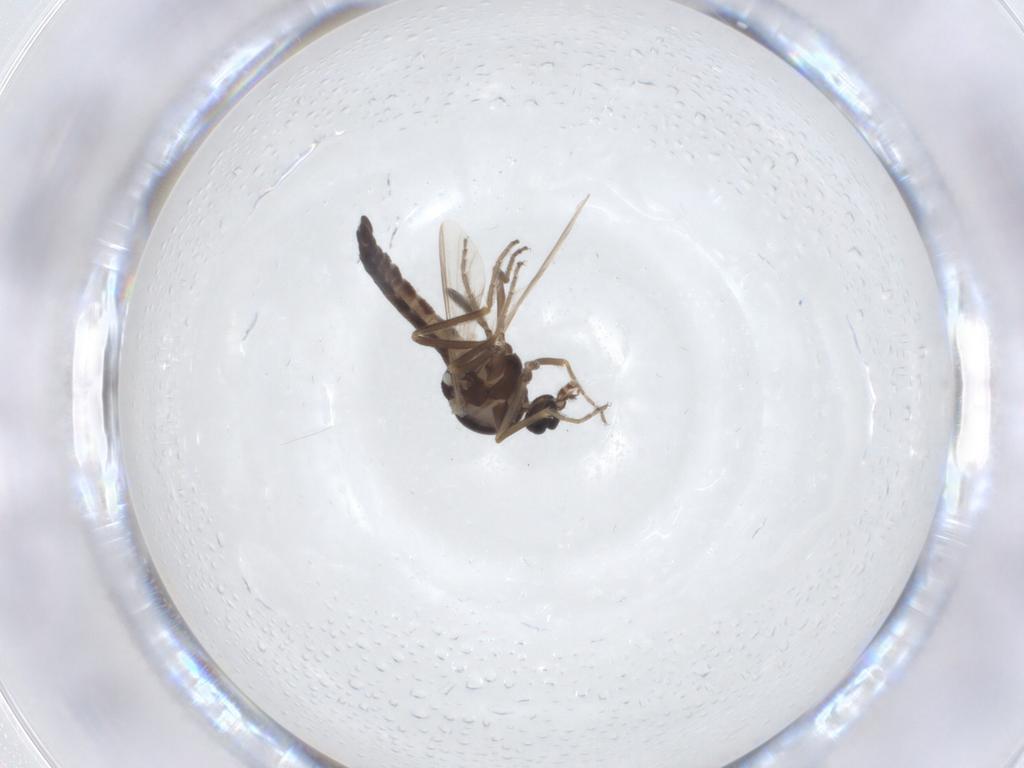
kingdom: Animalia
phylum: Arthropoda
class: Insecta
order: Diptera
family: Ceratopogonidae
